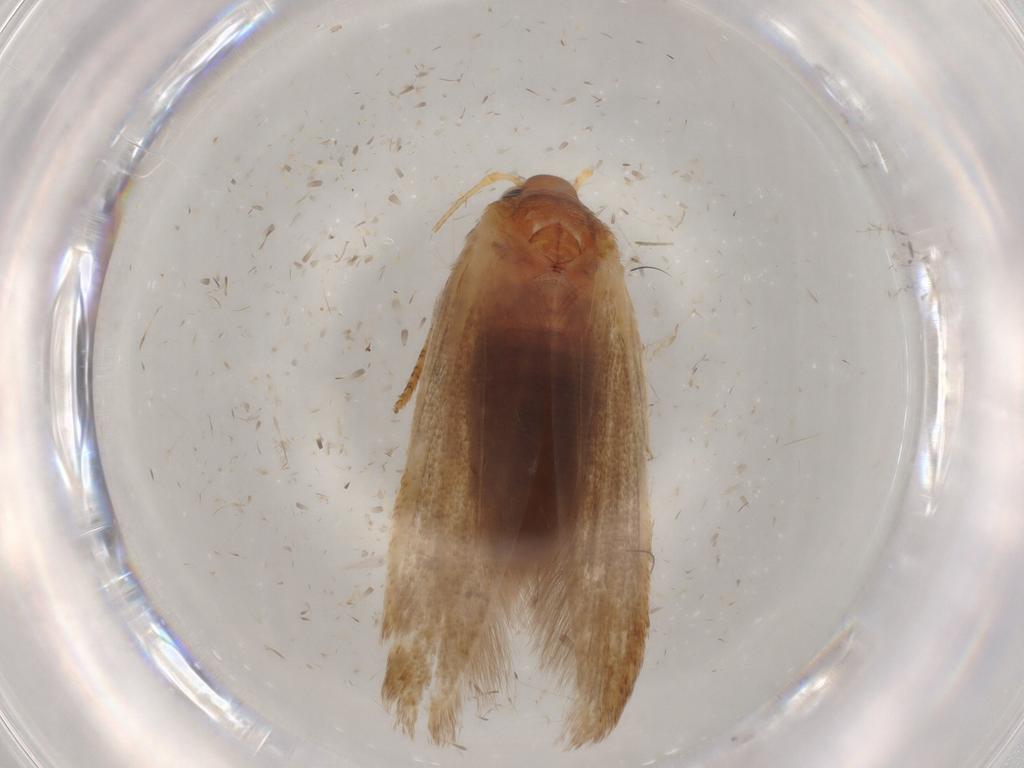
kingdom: Animalia
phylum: Arthropoda
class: Insecta
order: Lepidoptera
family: Blastobasidae
